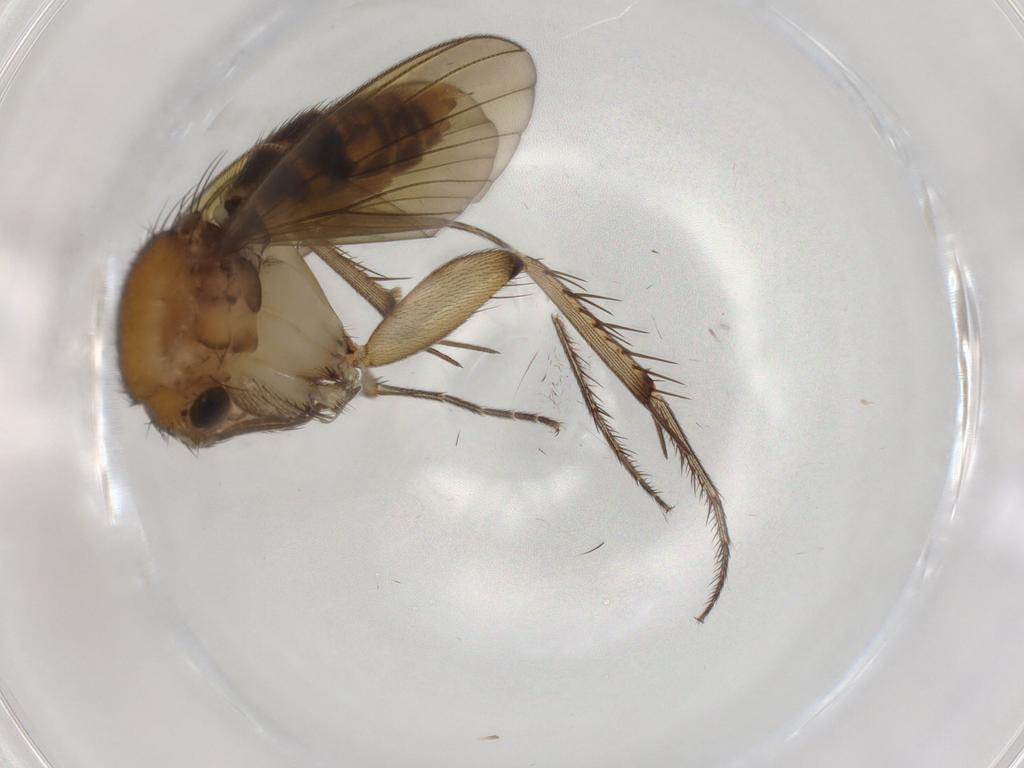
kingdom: Animalia
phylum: Arthropoda
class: Insecta
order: Diptera
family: Mycetophilidae
